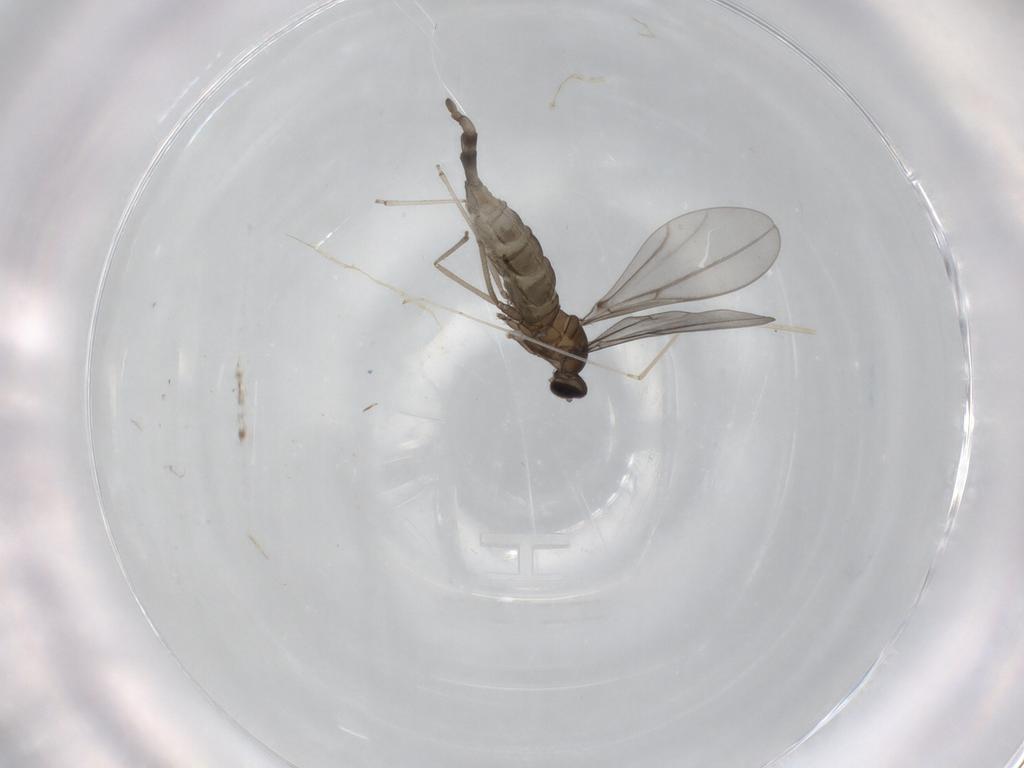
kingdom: Animalia
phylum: Arthropoda
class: Insecta
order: Diptera
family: Cecidomyiidae
